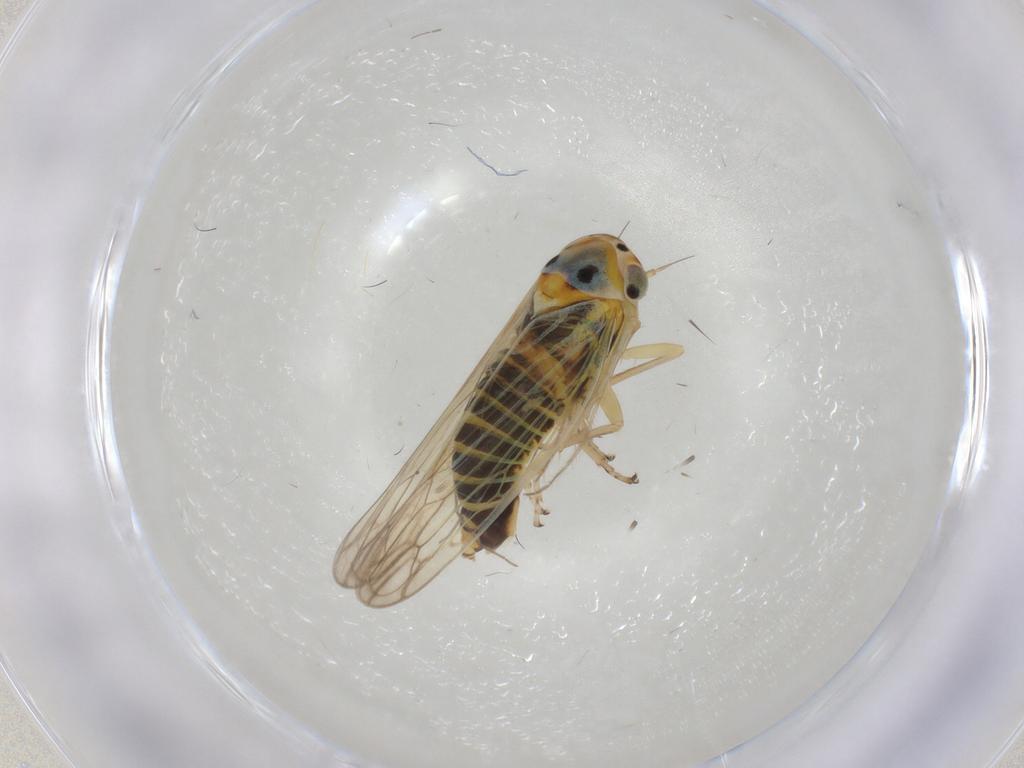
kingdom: Animalia
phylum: Arthropoda
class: Insecta
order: Hemiptera
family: Cicadellidae
